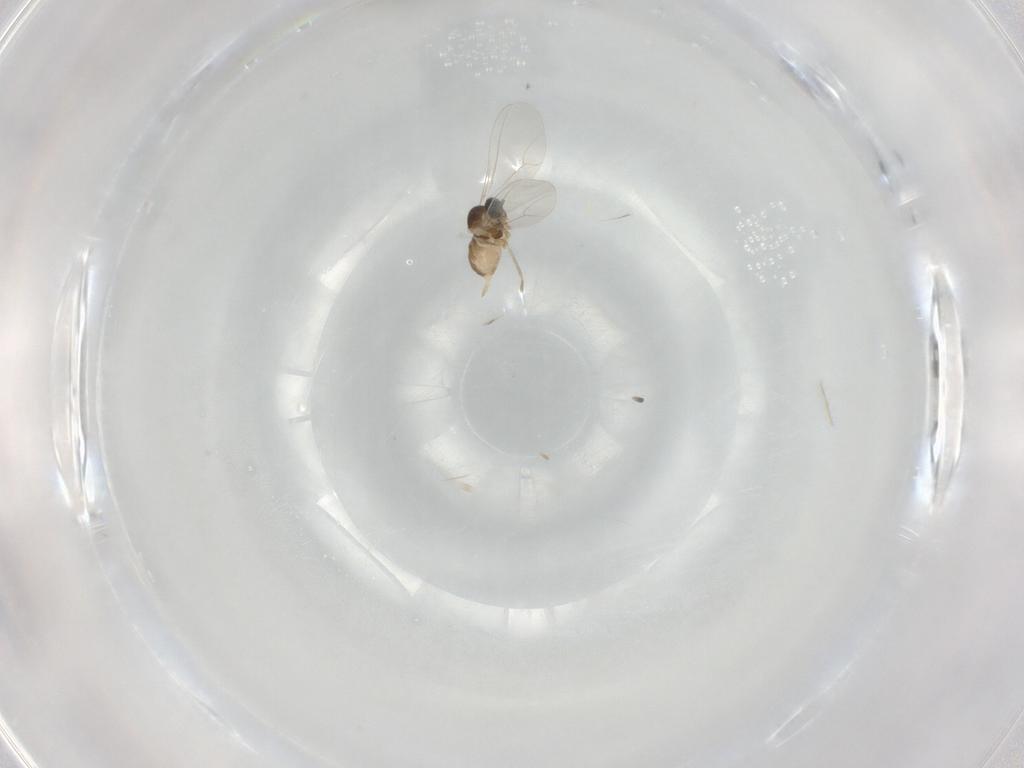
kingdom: Animalia
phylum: Arthropoda
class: Insecta
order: Diptera
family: Cecidomyiidae
